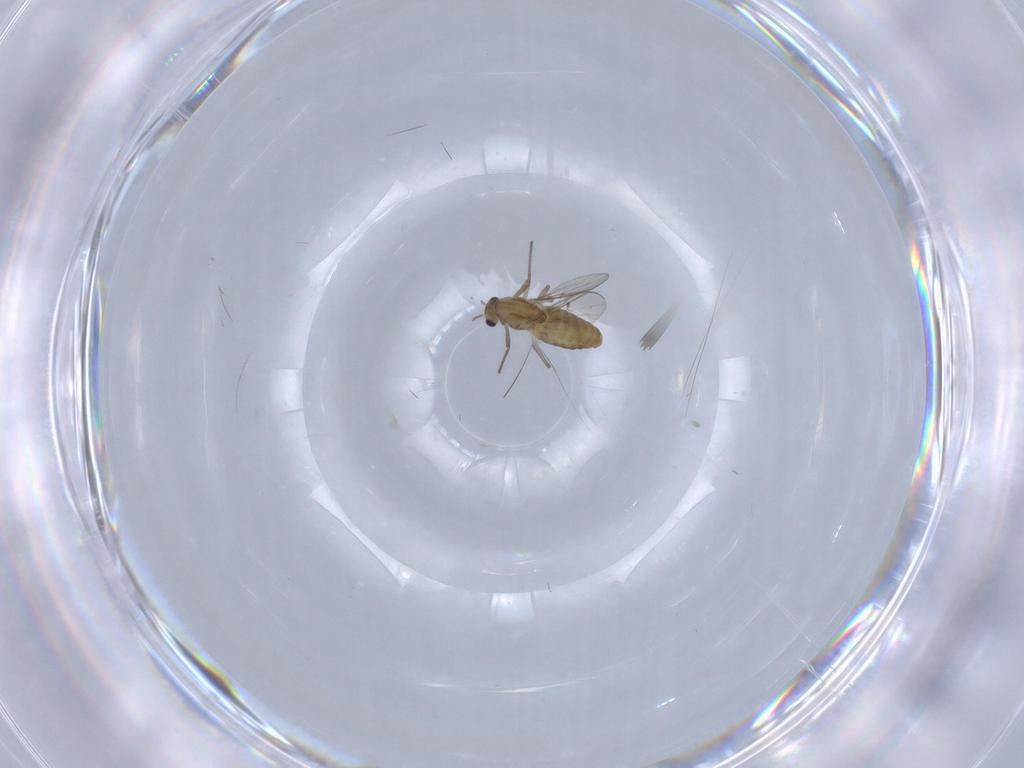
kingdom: Animalia
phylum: Arthropoda
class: Insecta
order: Diptera
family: Chironomidae
